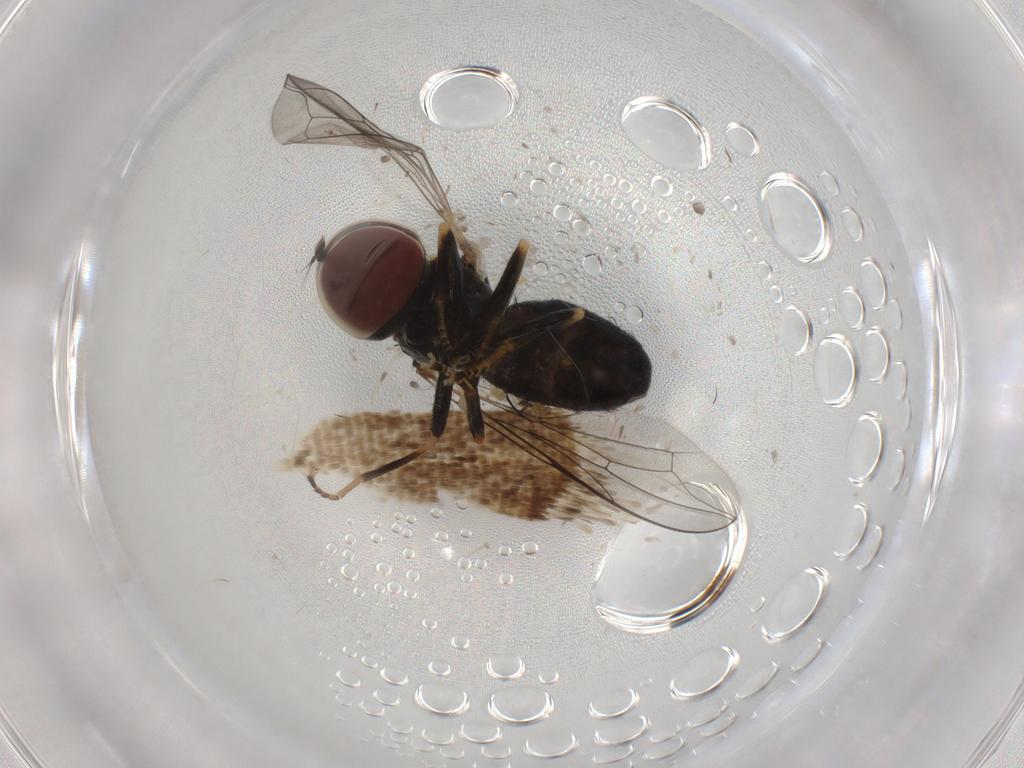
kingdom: Animalia
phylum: Arthropoda
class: Insecta
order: Diptera
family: Pipunculidae
